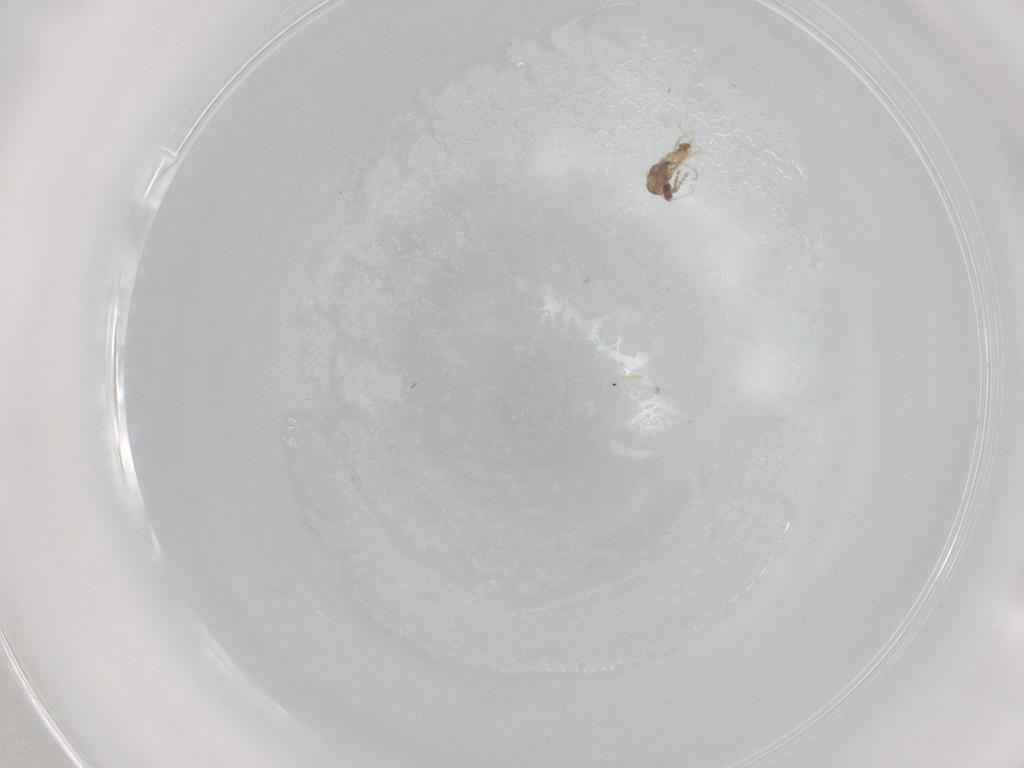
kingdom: Animalia
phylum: Arthropoda
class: Insecta
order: Diptera
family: Cecidomyiidae
